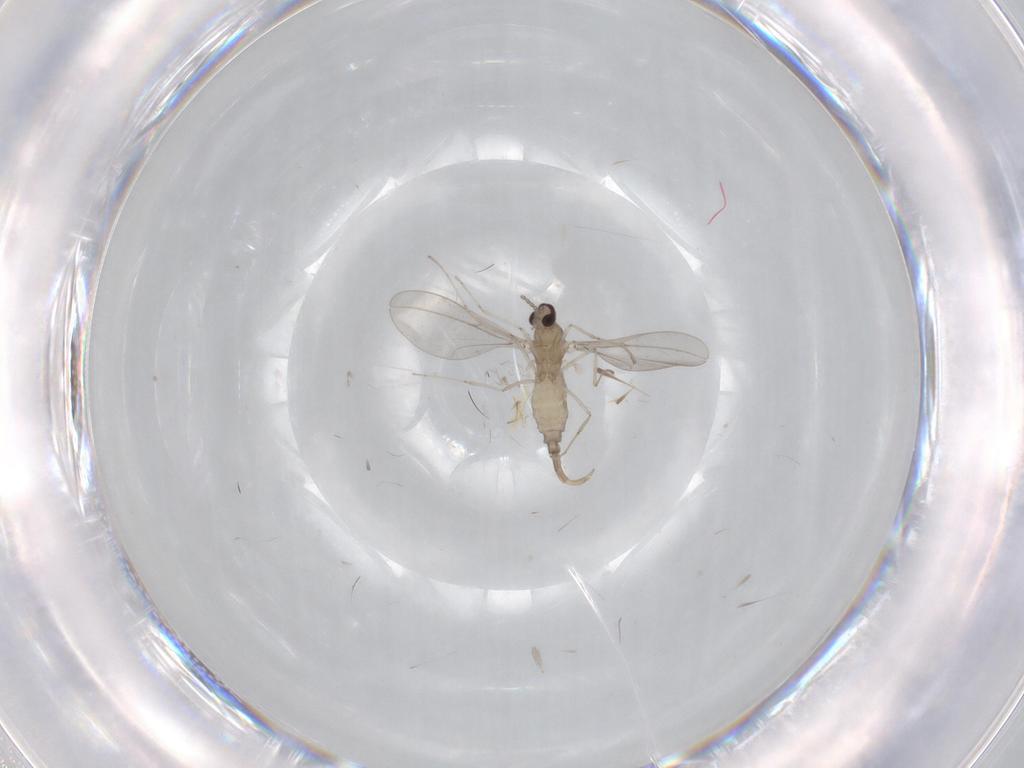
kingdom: Animalia
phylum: Arthropoda
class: Insecta
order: Diptera
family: Cecidomyiidae
